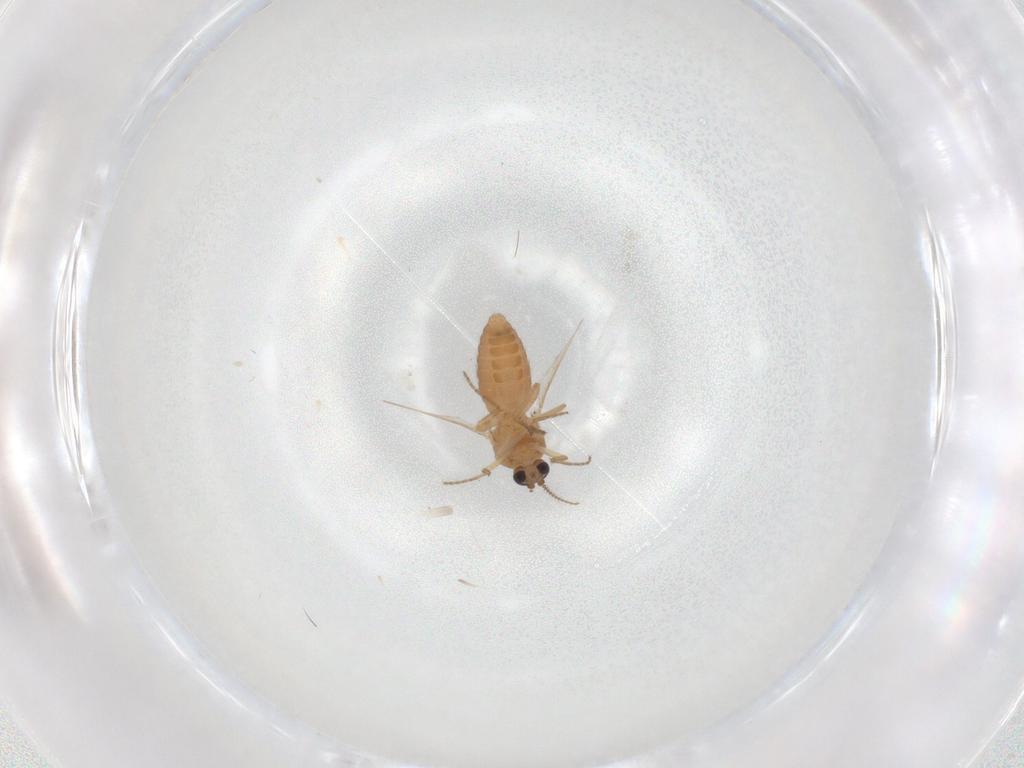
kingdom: Animalia
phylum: Arthropoda
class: Insecta
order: Diptera
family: Ceratopogonidae
